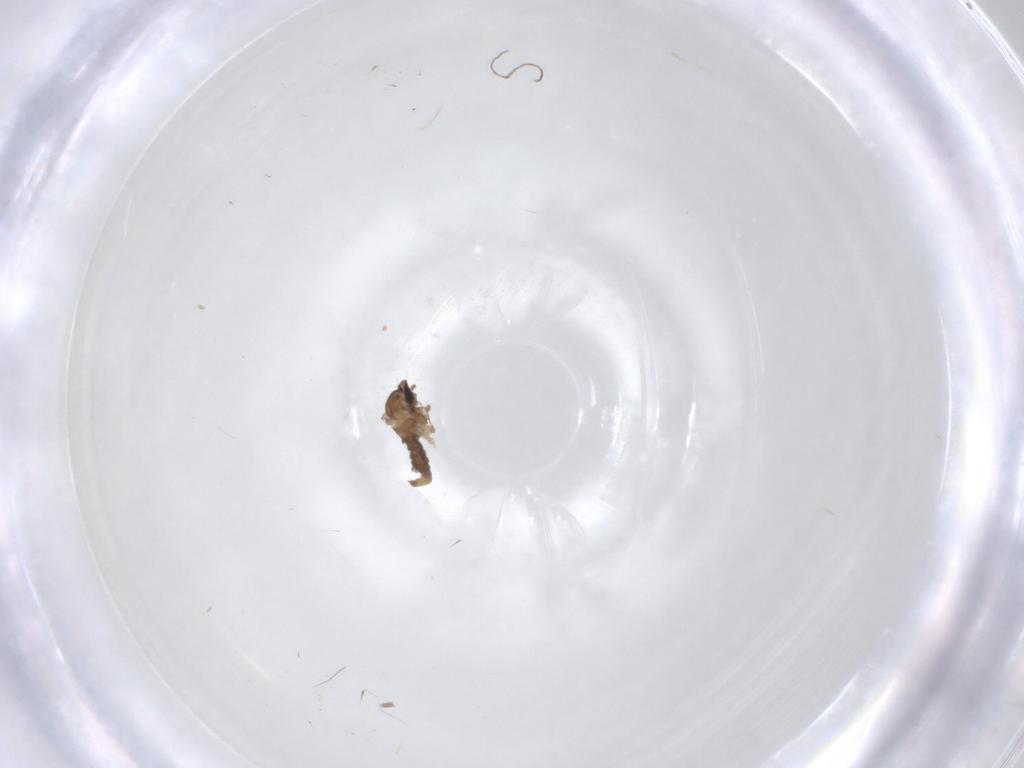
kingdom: Animalia
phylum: Arthropoda
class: Insecta
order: Diptera
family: Cecidomyiidae
